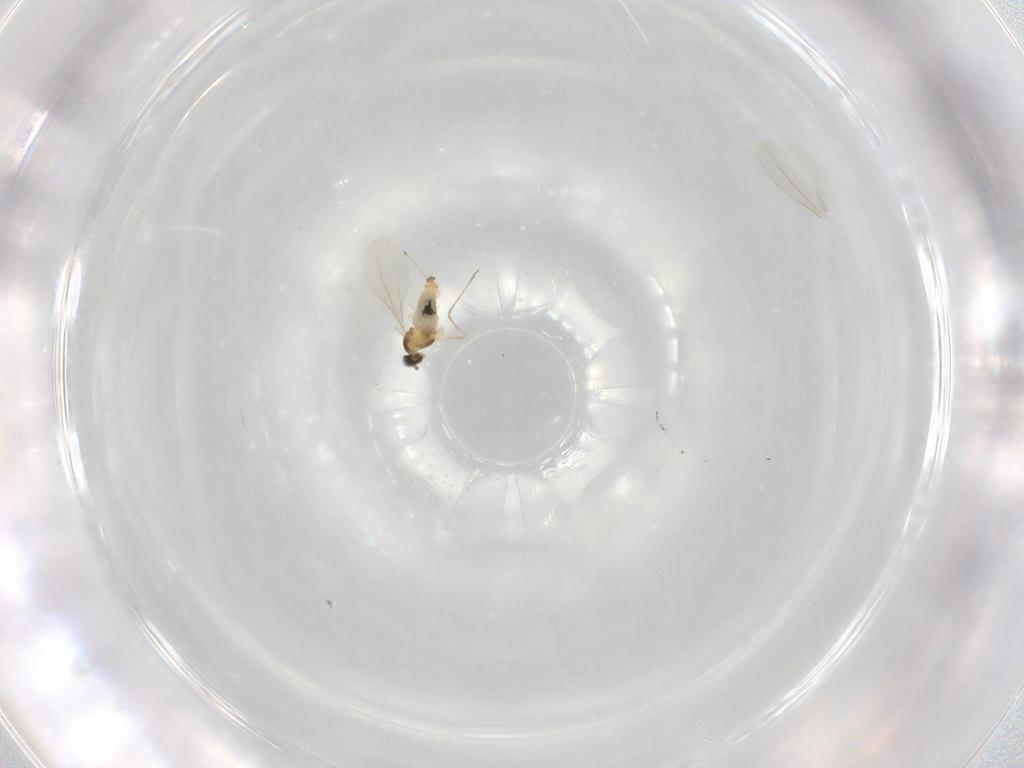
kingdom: Animalia
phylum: Arthropoda
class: Insecta
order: Diptera
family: Cecidomyiidae
